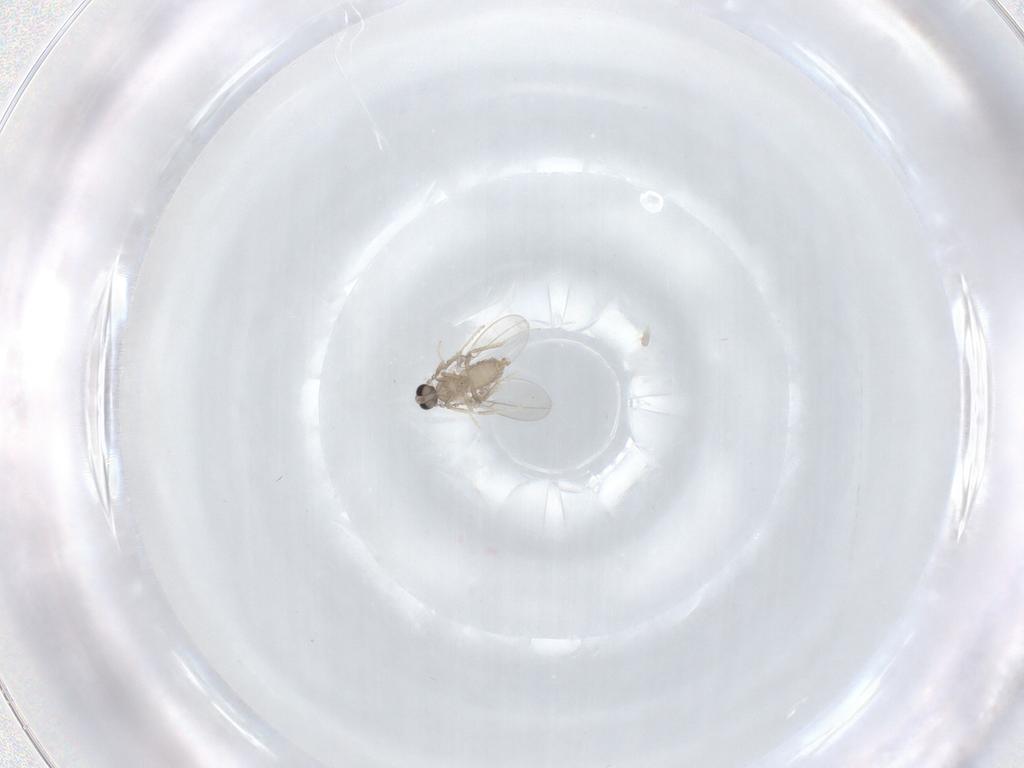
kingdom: Animalia
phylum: Arthropoda
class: Insecta
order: Diptera
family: Cecidomyiidae
